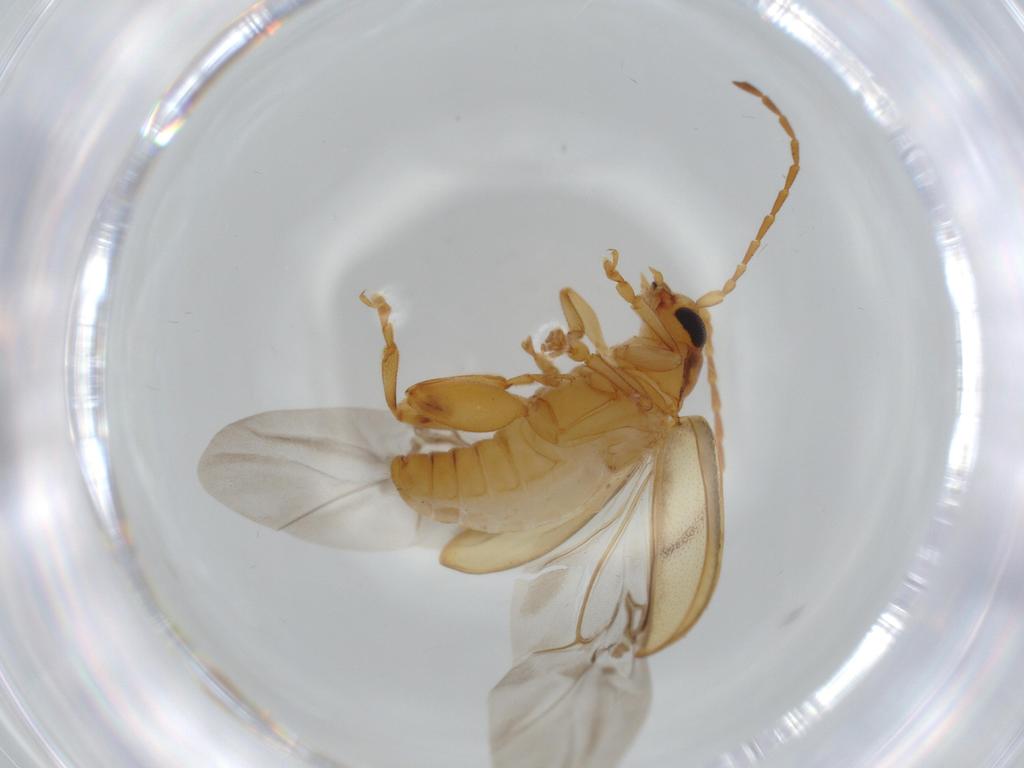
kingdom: Animalia
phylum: Arthropoda
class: Insecta
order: Coleoptera
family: Chrysomelidae
